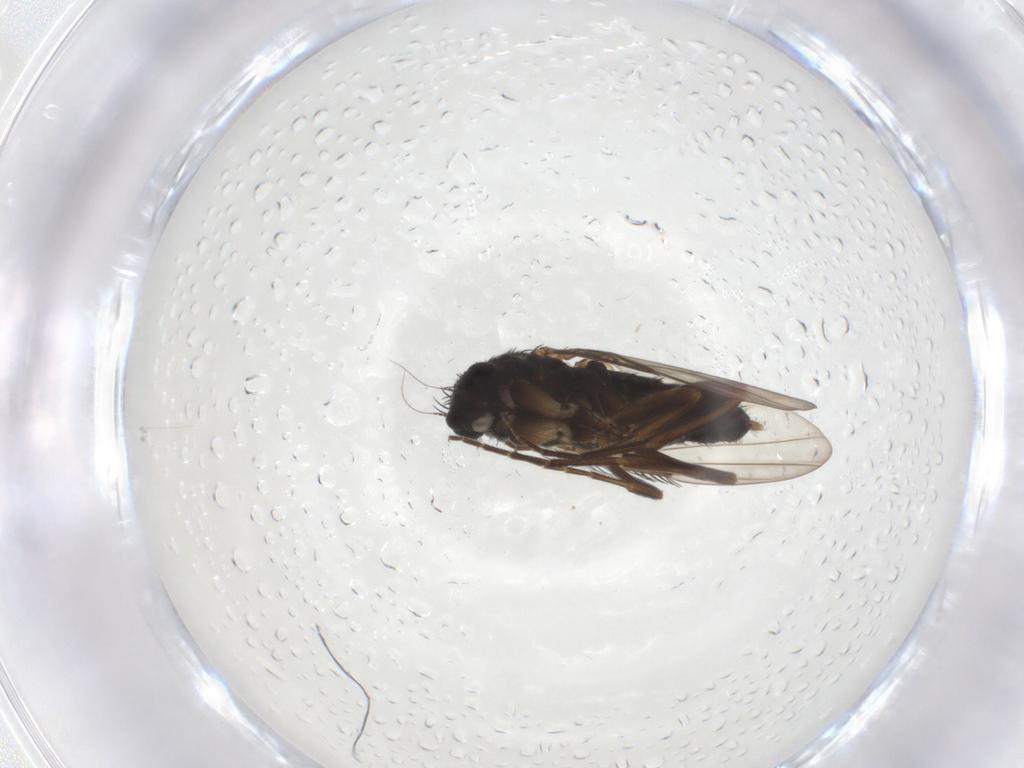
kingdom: Animalia
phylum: Arthropoda
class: Insecta
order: Diptera
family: Phoridae
